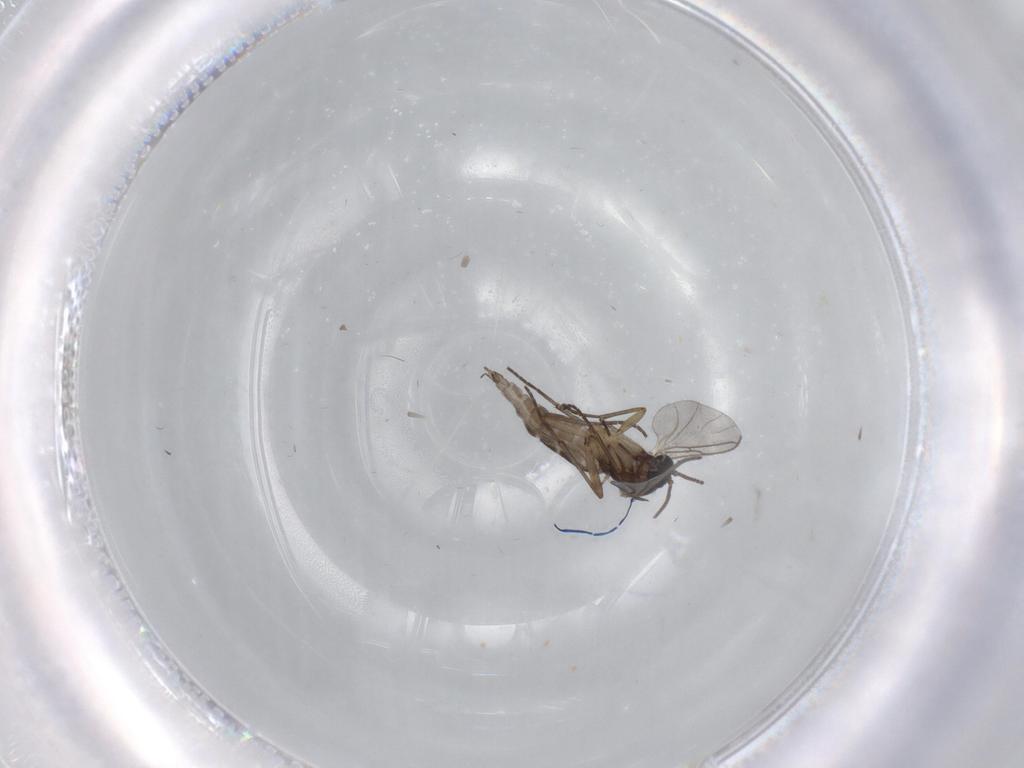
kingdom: Animalia
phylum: Arthropoda
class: Insecta
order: Diptera
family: Sciaridae
